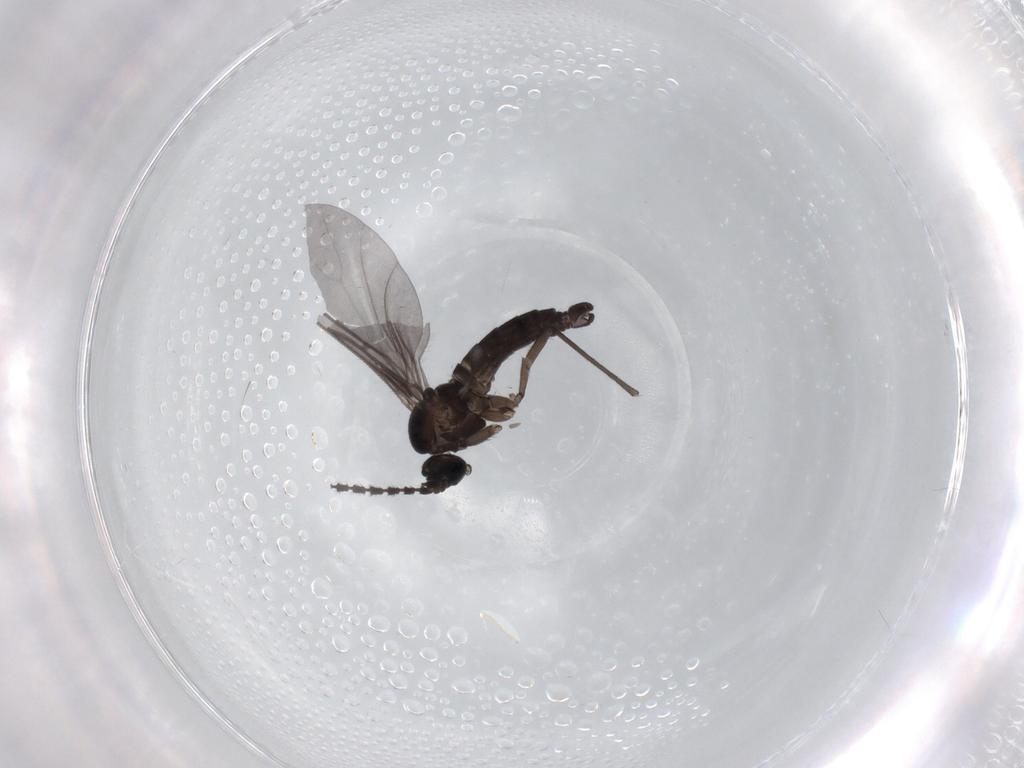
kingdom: Animalia
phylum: Arthropoda
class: Insecta
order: Diptera
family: Sciaridae
